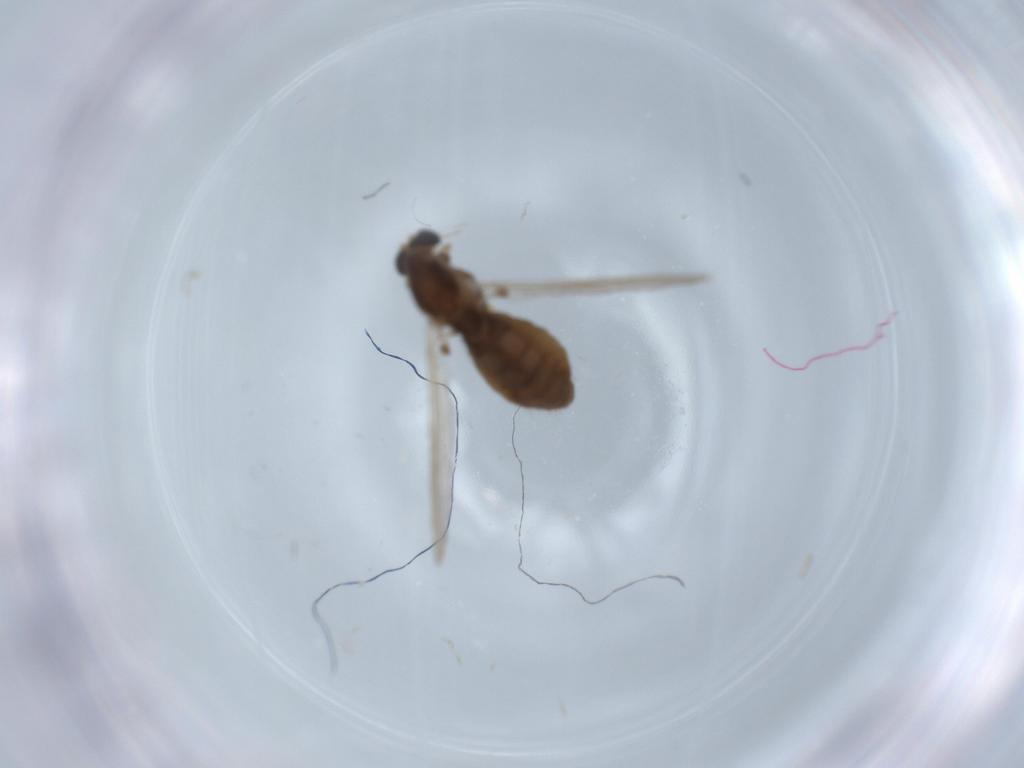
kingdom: Animalia
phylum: Arthropoda
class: Insecta
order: Diptera
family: Chironomidae
